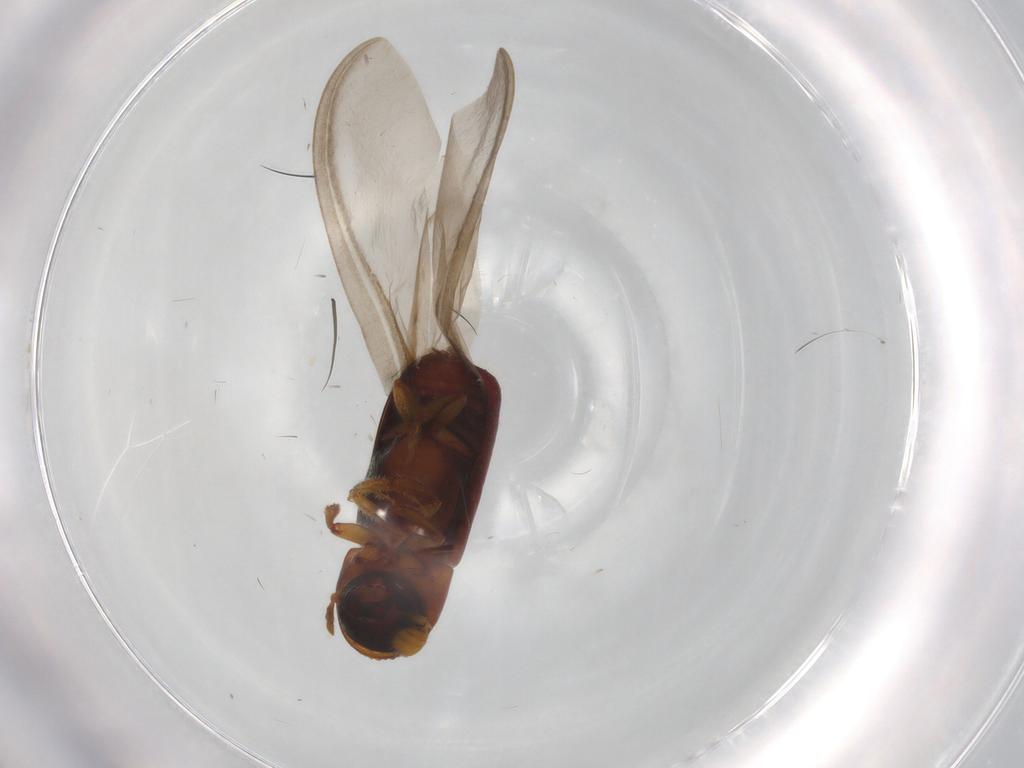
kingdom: Animalia
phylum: Arthropoda
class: Insecta
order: Coleoptera
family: Curculionidae
